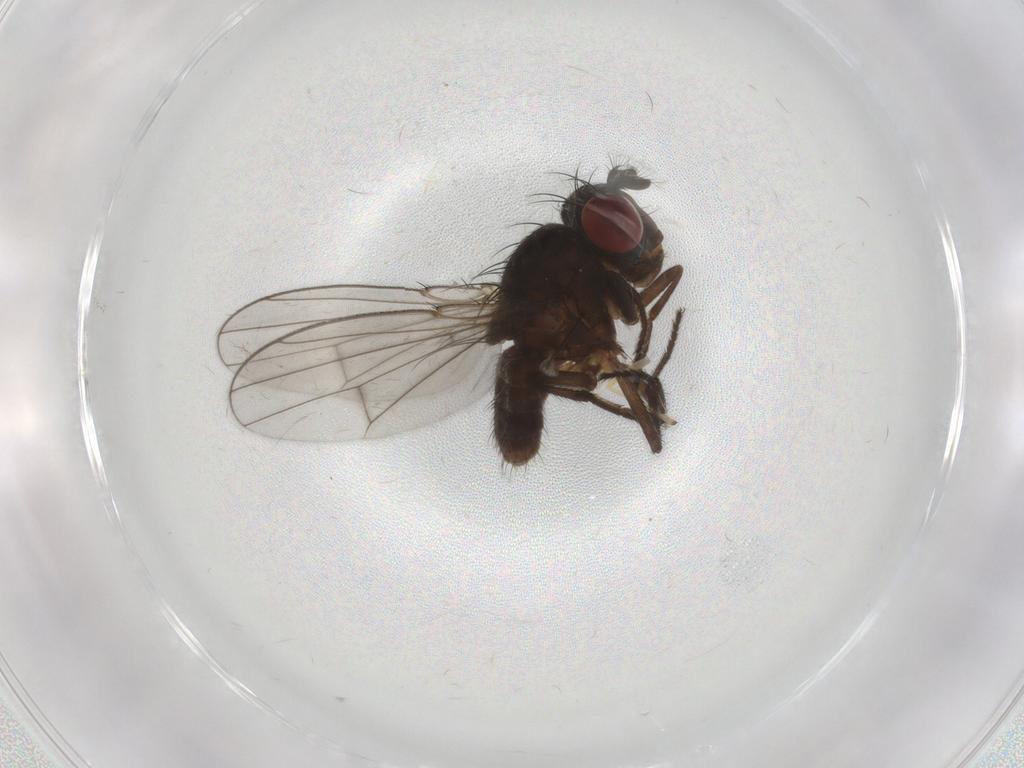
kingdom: Animalia
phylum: Arthropoda
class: Insecta
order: Diptera
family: Ephydridae
